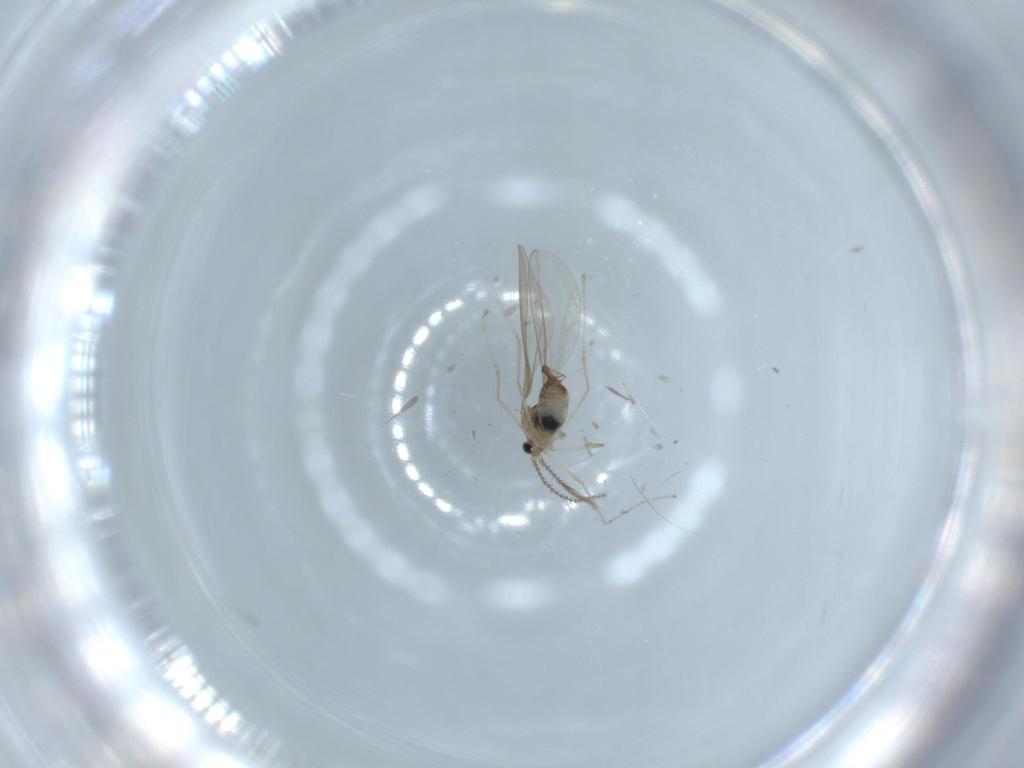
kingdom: Animalia
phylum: Arthropoda
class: Insecta
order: Diptera
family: Cecidomyiidae
